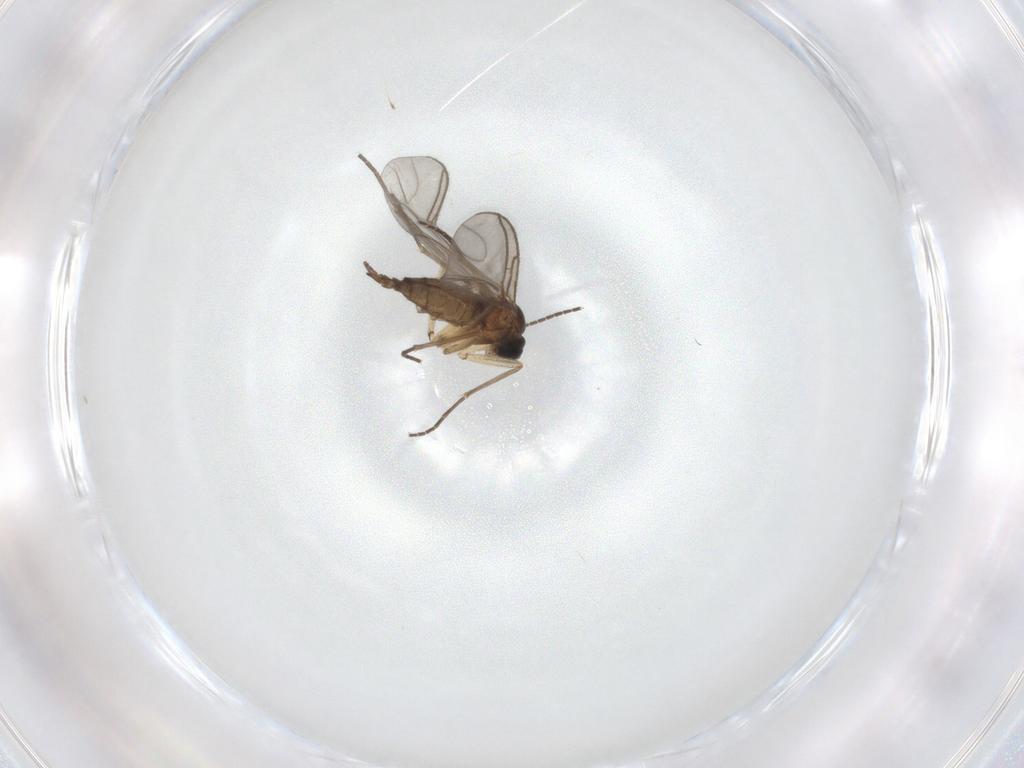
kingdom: Animalia
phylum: Arthropoda
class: Insecta
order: Diptera
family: Sciaridae
